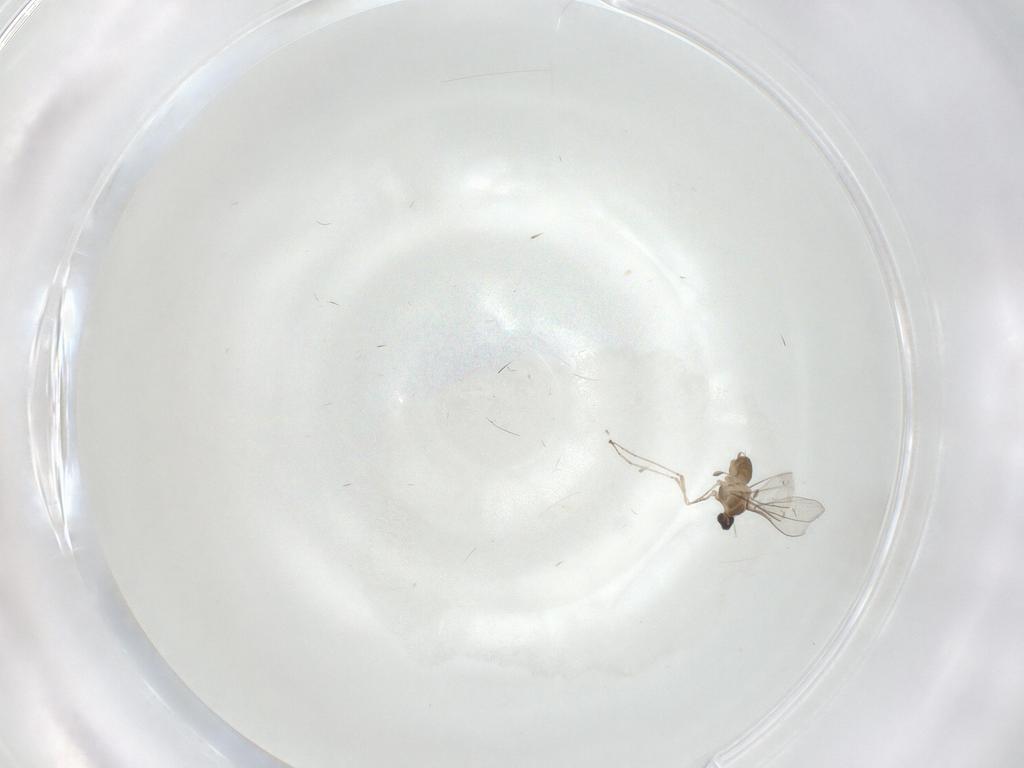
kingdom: Animalia
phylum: Arthropoda
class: Insecta
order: Diptera
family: Drosophilidae
